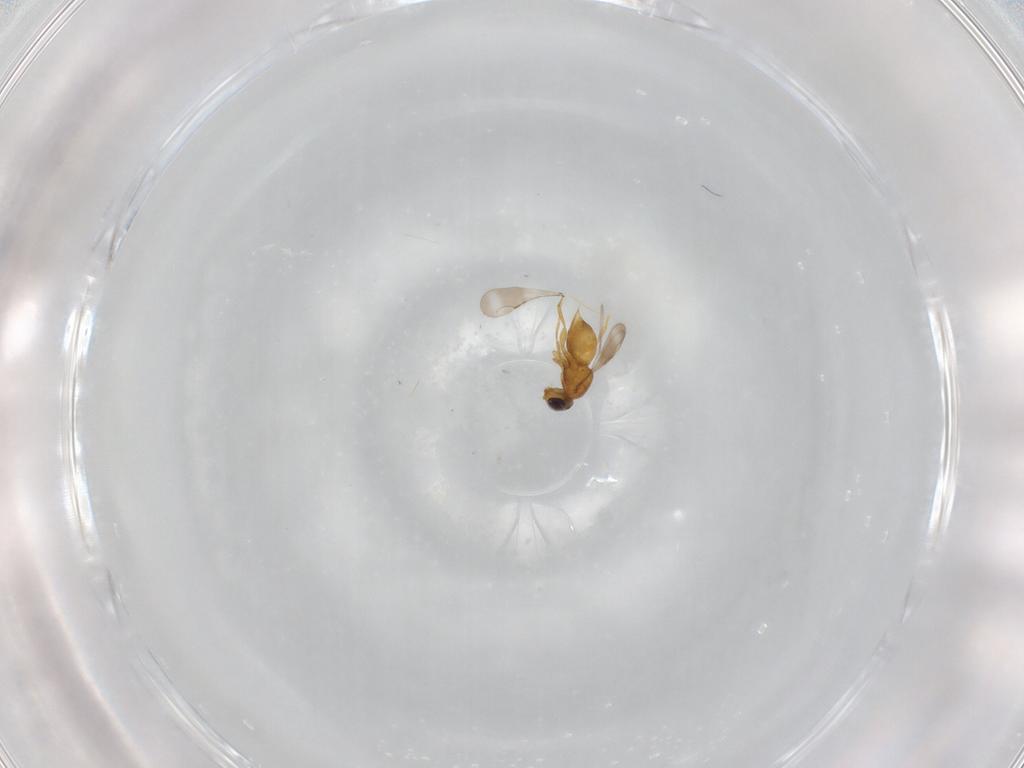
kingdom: Animalia
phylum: Arthropoda
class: Insecta
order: Hymenoptera
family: Ceraphronidae
